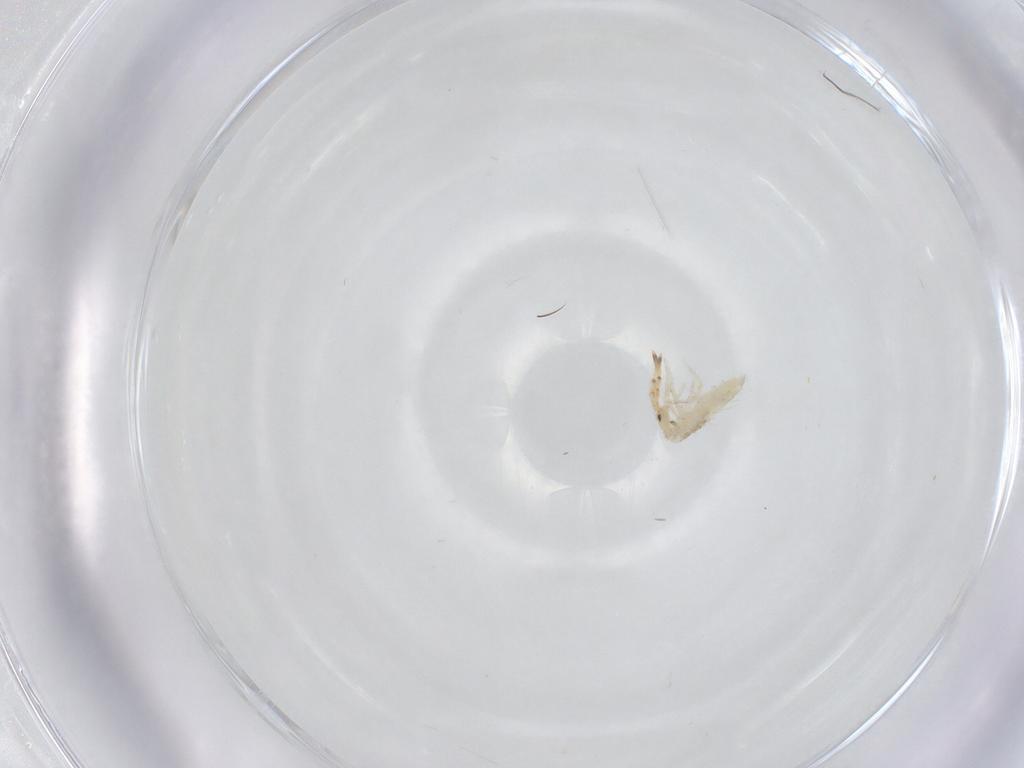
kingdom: Animalia
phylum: Arthropoda
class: Collembola
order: Entomobryomorpha
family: Entomobryidae
